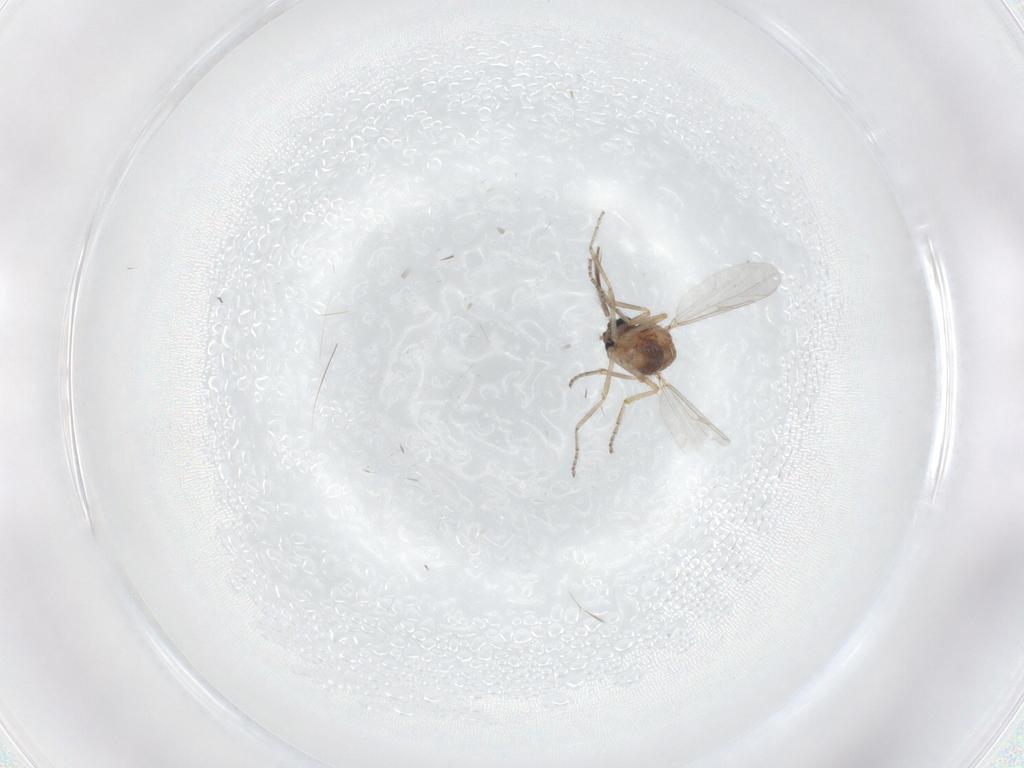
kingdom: Animalia
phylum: Arthropoda
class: Insecta
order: Diptera
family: Ceratopogonidae
